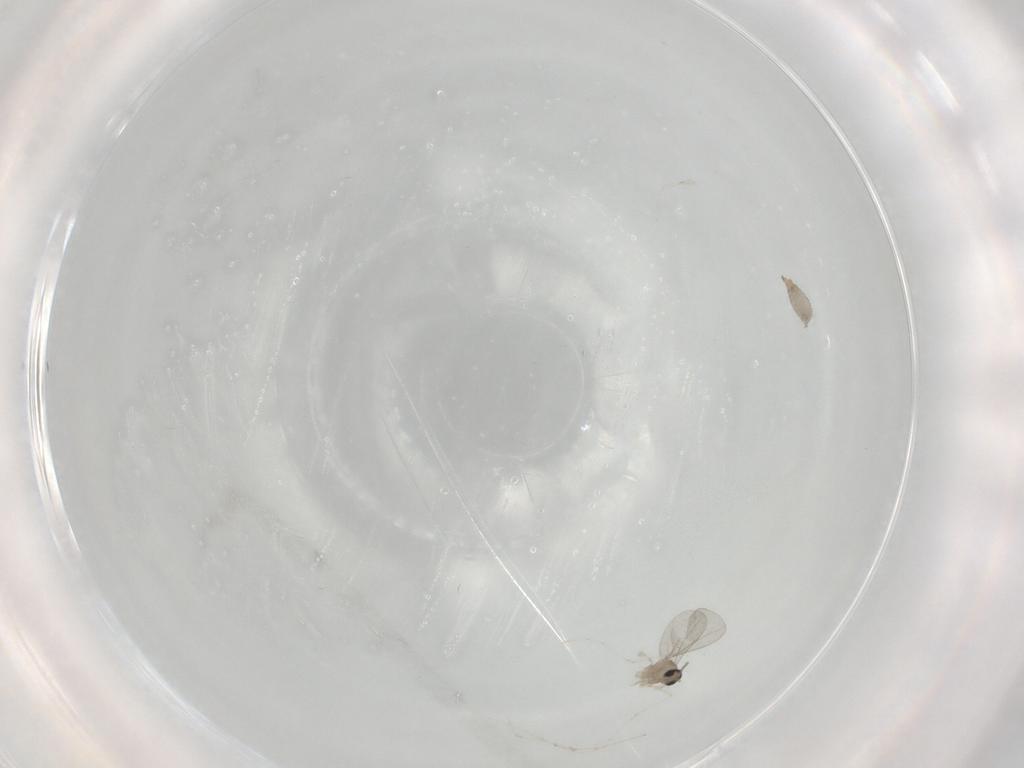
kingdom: Animalia
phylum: Arthropoda
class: Insecta
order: Diptera
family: Cecidomyiidae
